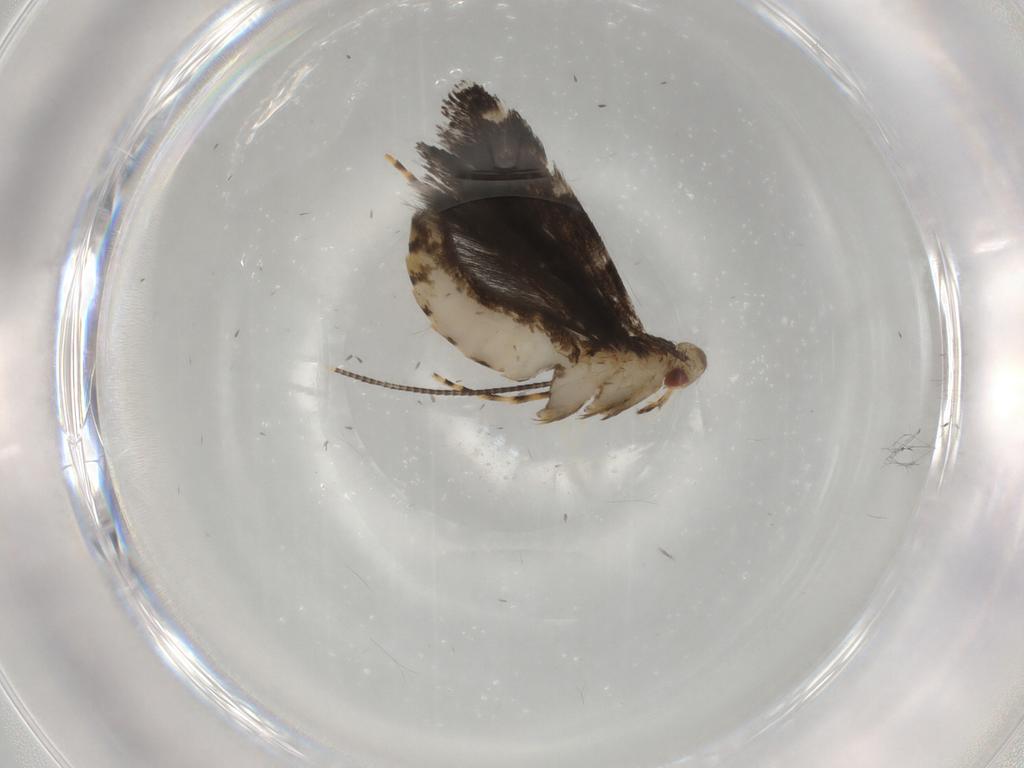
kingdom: Animalia
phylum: Arthropoda
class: Insecta
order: Lepidoptera
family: Gracillariidae
